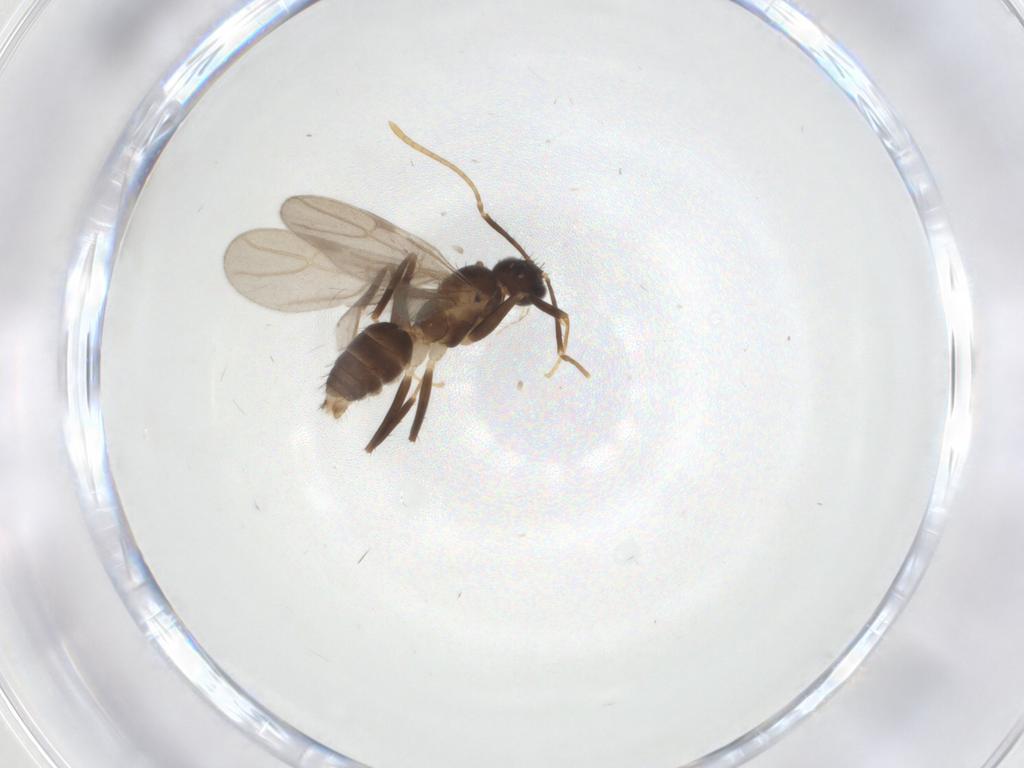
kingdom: Animalia
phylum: Arthropoda
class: Insecta
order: Hymenoptera
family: Formicidae
